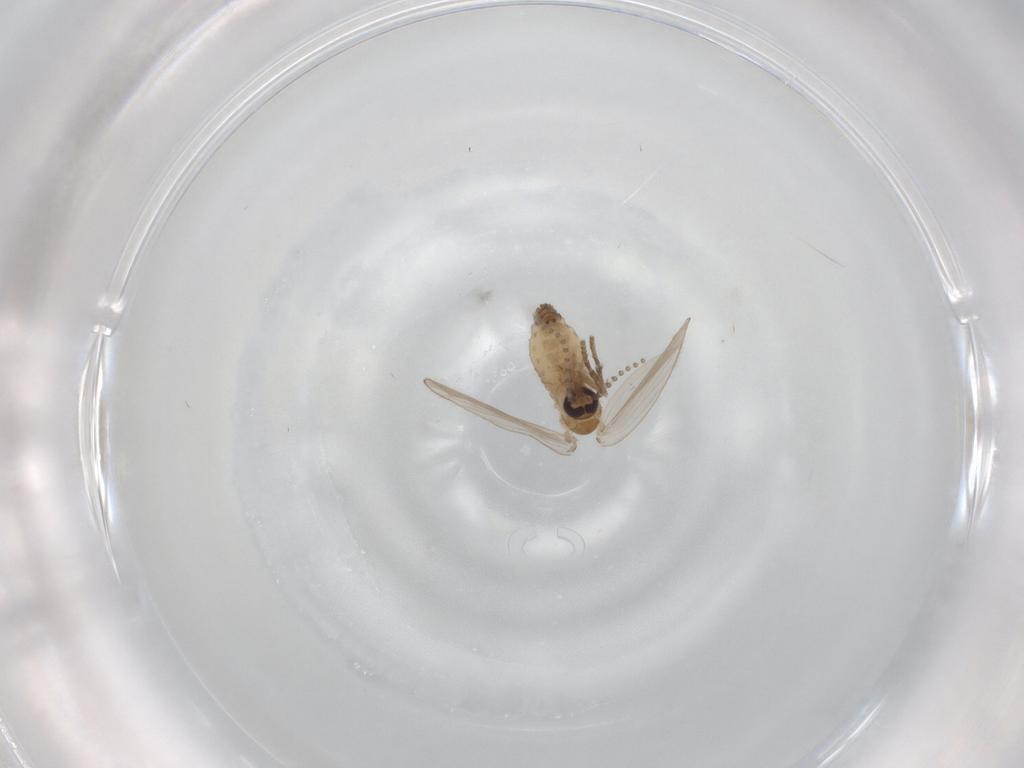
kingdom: Animalia
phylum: Arthropoda
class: Insecta
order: Diptera
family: Psychodidae
